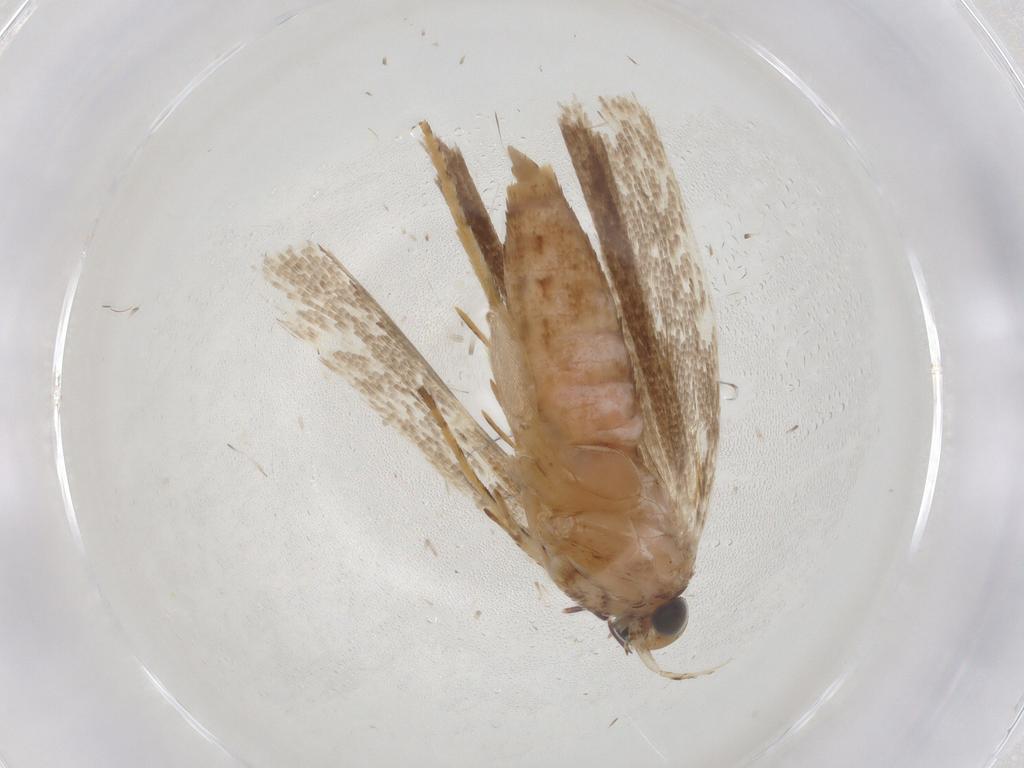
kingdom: Animalia
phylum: Arthropoda
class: Insecta
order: Lepidoptera
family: Gelechiidae
